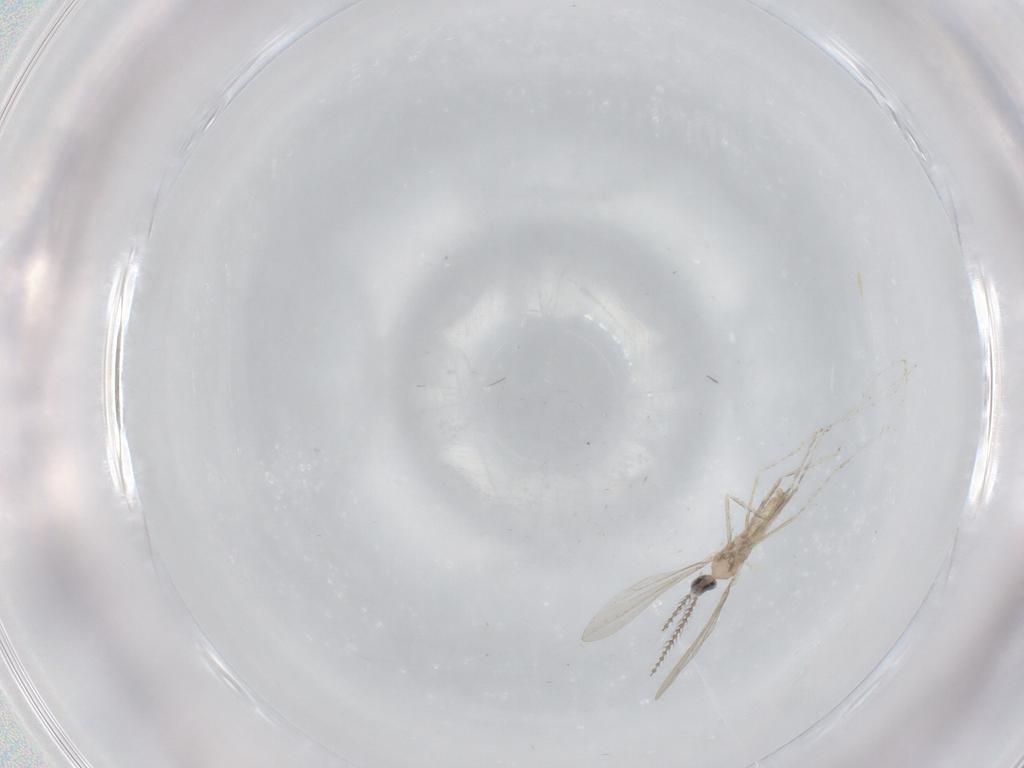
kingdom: Animalia
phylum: Arthropoda
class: Insecta
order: Diptera
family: Cecidomyiidae
